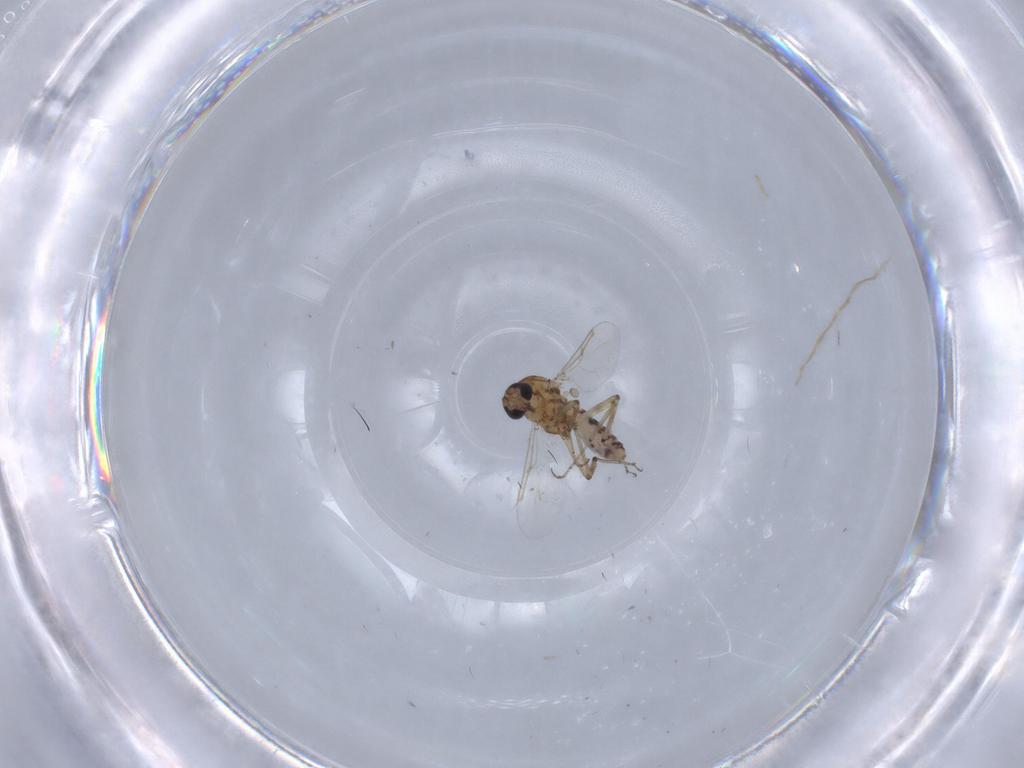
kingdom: Animalia
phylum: Arthropoda
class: Insecta
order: Diptera
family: Ceratopogonidae
